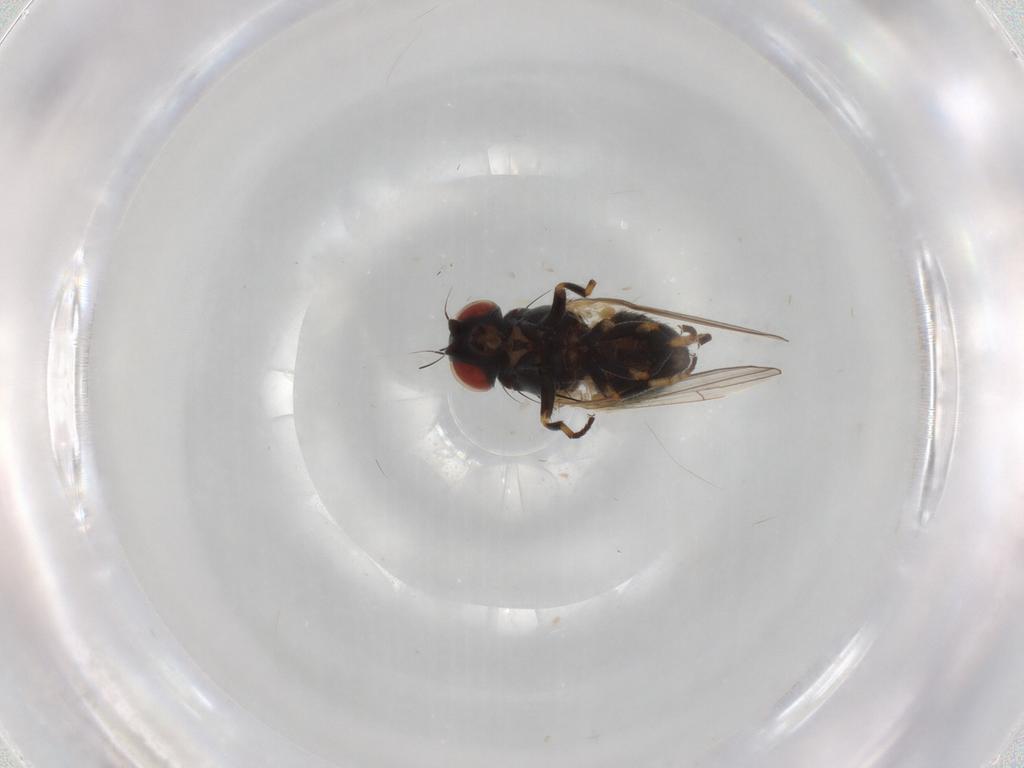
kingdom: Animalia
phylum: Arthropoda
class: Insecta
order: Diptera
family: Chamaemyiidae
